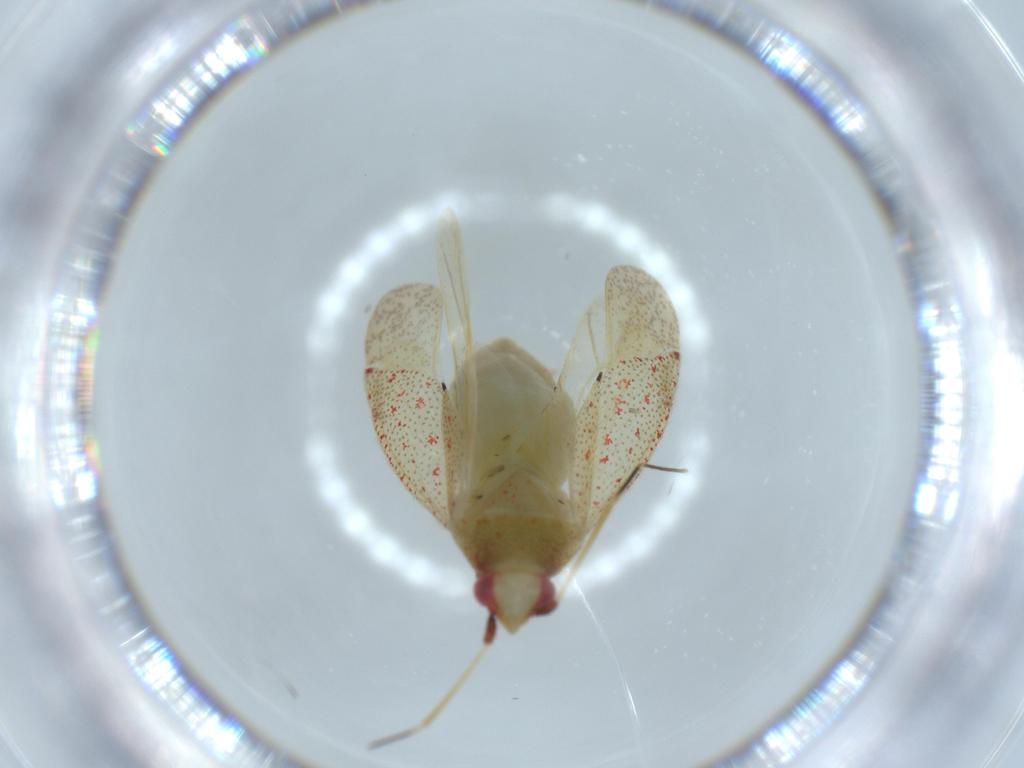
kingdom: Animalia
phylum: Arthropoda
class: Insecta
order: Hemiptera
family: Miridae
